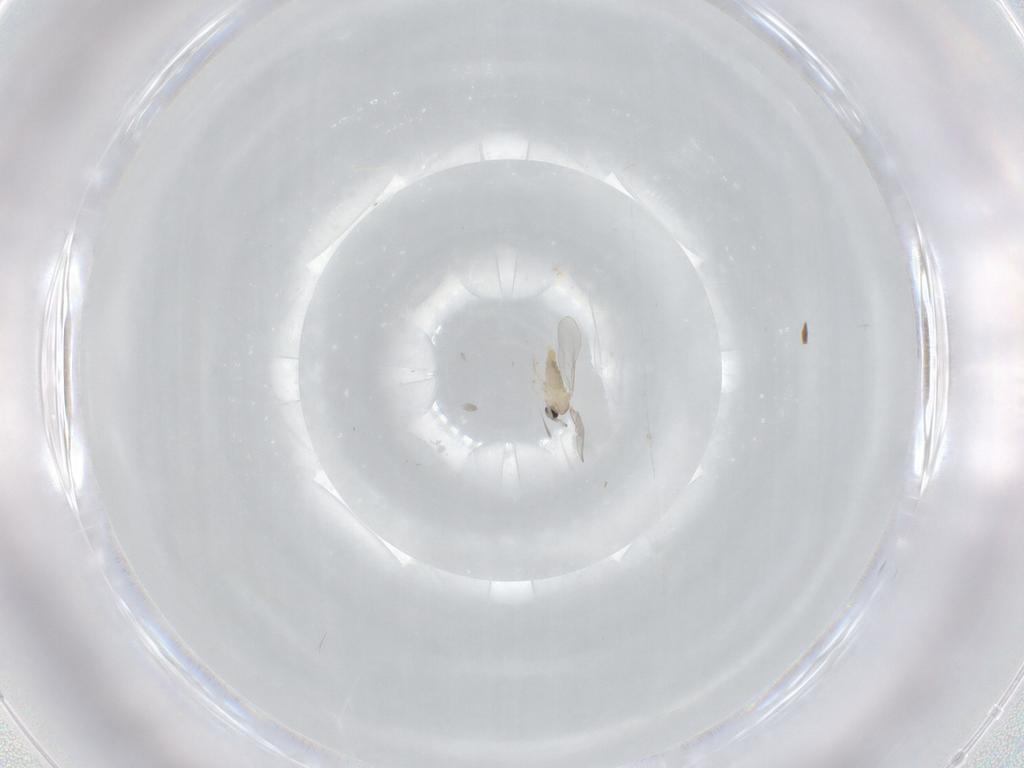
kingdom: Animalia
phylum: Arthropoda
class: Insecta
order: Diptera
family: Cecidomyiidae
